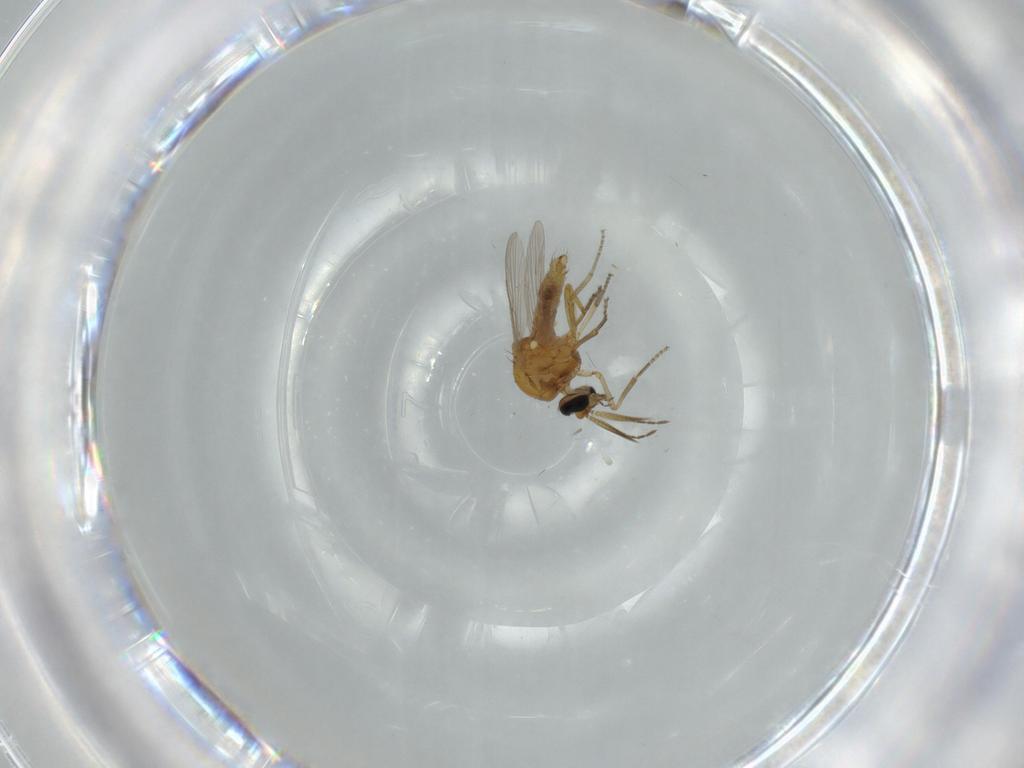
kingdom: Animalia
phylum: Arthropoda
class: Insecta
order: Diptera
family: Ceratopogonidae
